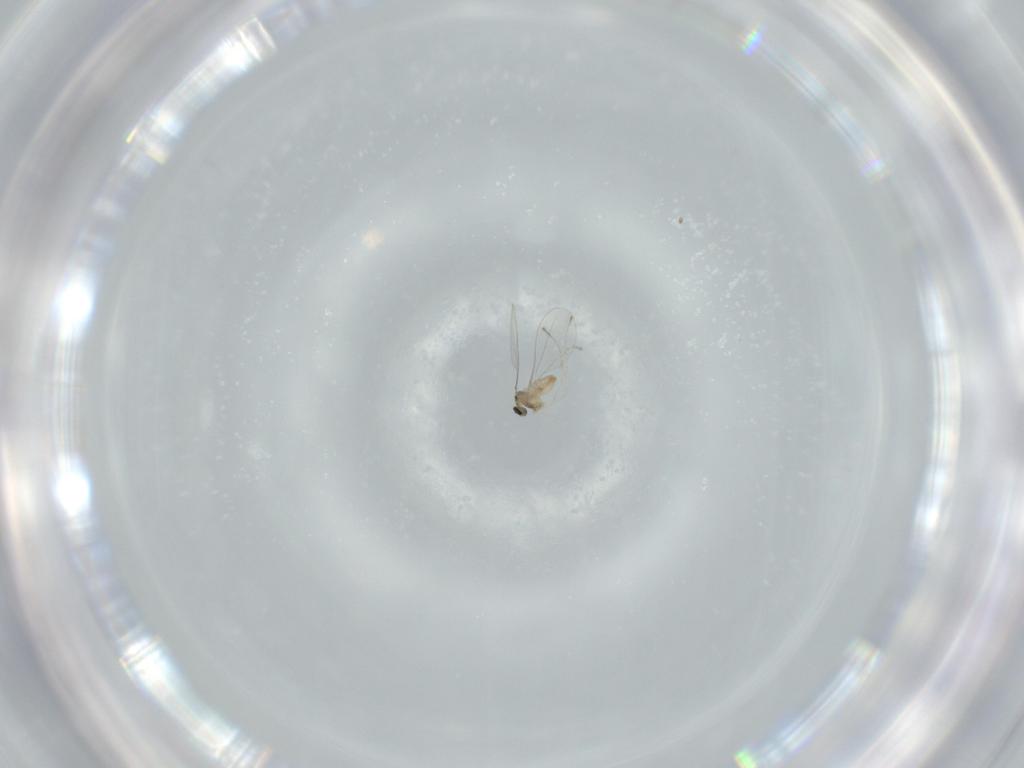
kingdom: Animalia
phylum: Arthropoda
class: Insecta
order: Diptera
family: Cecidomyiidae
